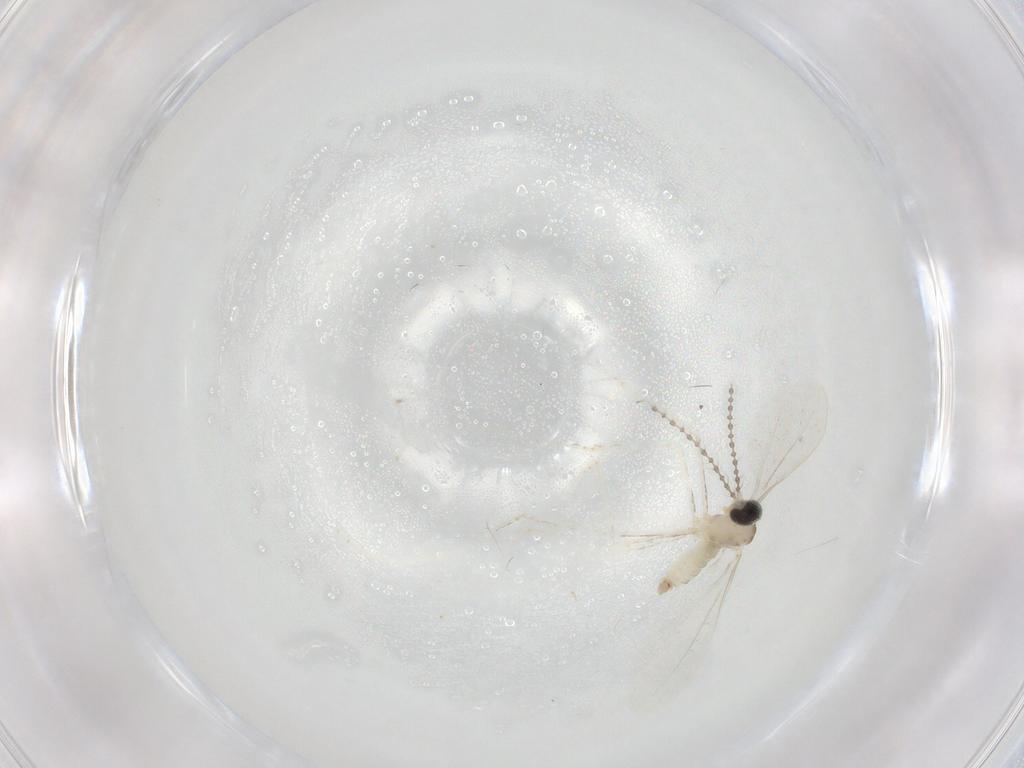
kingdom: Animalia
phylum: Arthropoda
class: Insecta
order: Diptera
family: Cecidomyiidae
